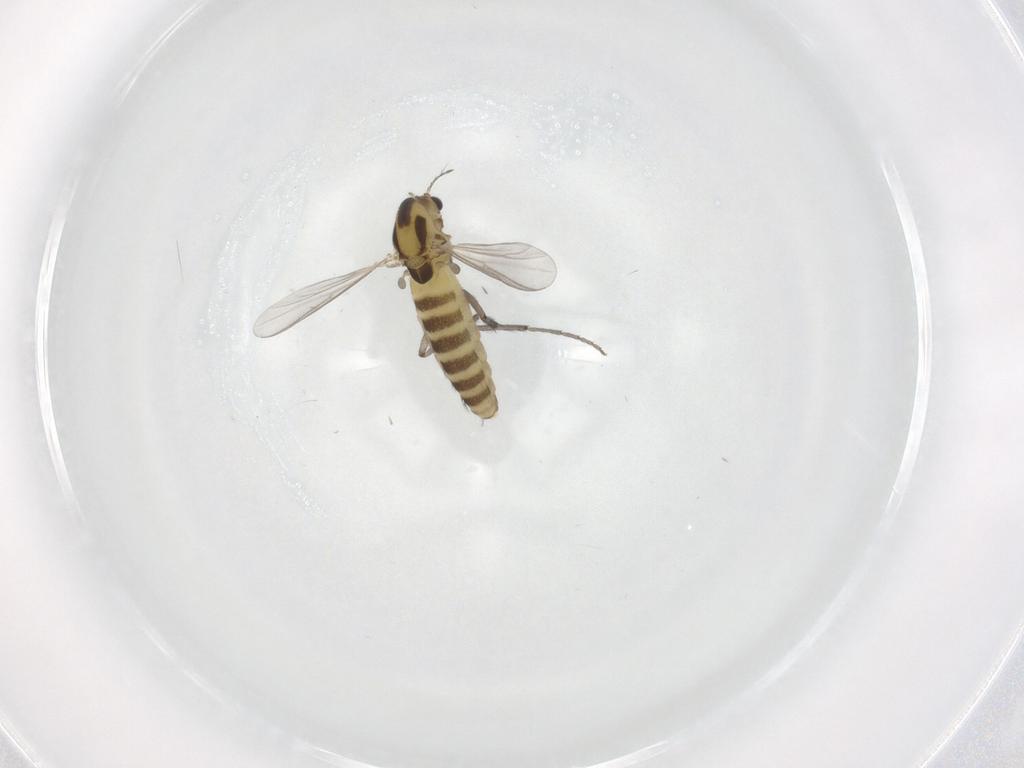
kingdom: Animalia
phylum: Arthropoda
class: Insecta
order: Diptera
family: Chironomidae
